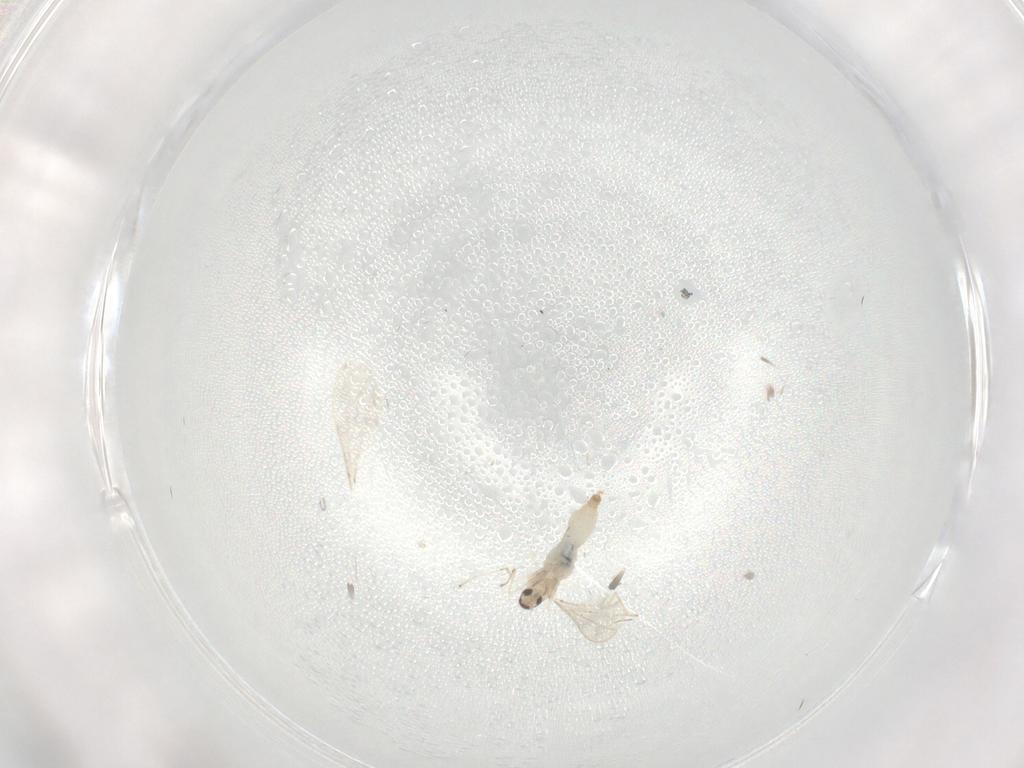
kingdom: Animalia
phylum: Arthropoda
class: Insecta
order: Diptera
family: Cecidomyiidae
